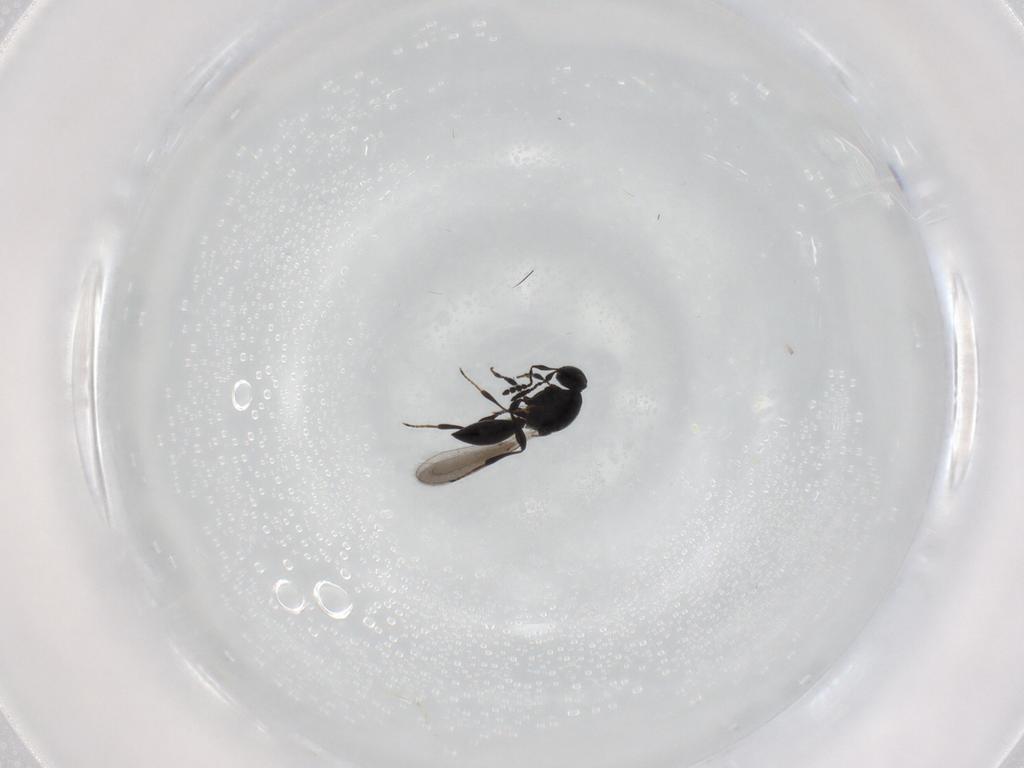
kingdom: Animalia
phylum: Arthropoda
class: Insecta
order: Hymenoptera
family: Platygastridae
